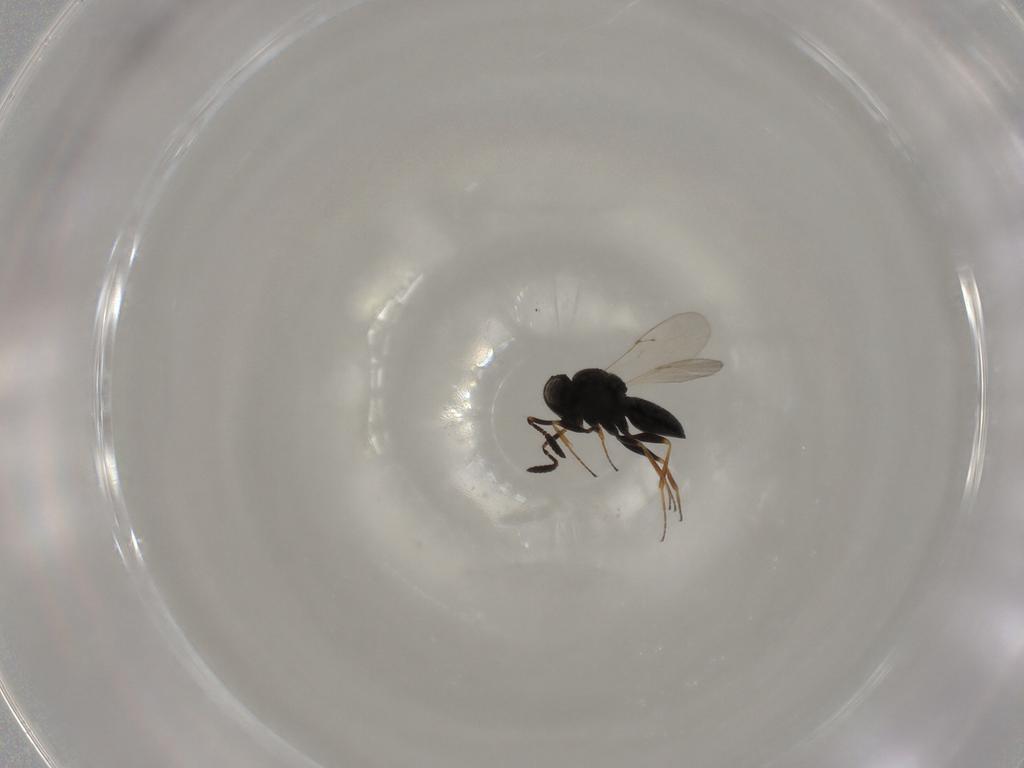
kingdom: Animalia
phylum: Arthropoda
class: Insecta
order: Hymenoptera
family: Scelionidae
